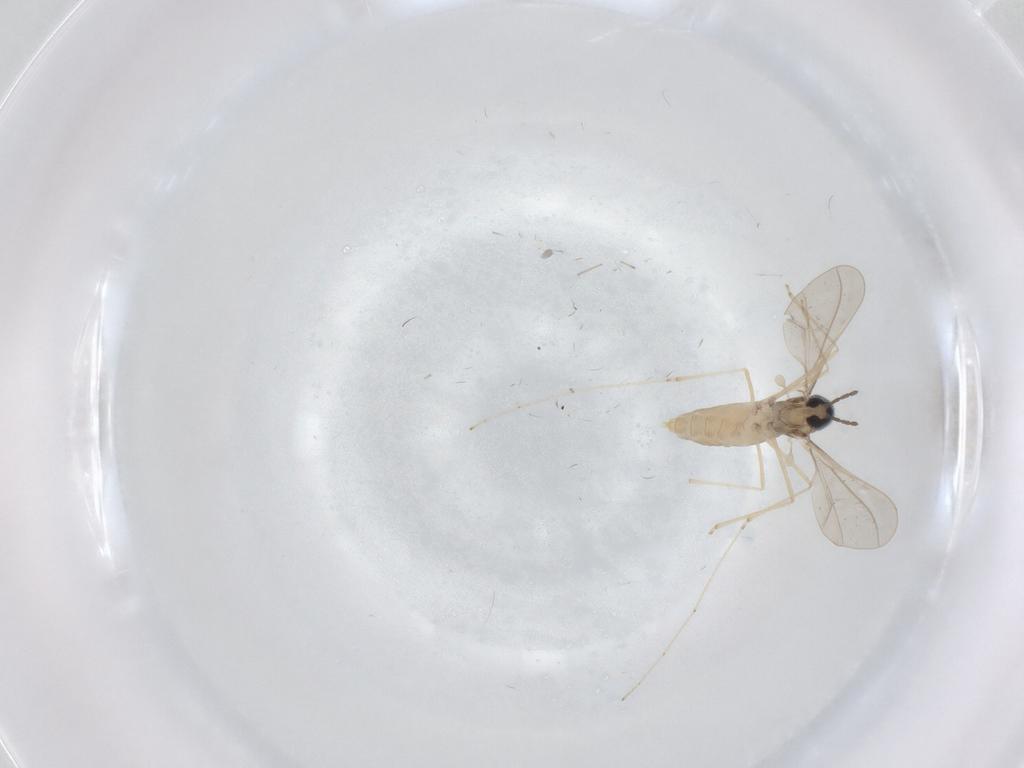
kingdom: Animalia
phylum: Arthropoda
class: Insecta
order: Diptera
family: Cecidomyiidae
